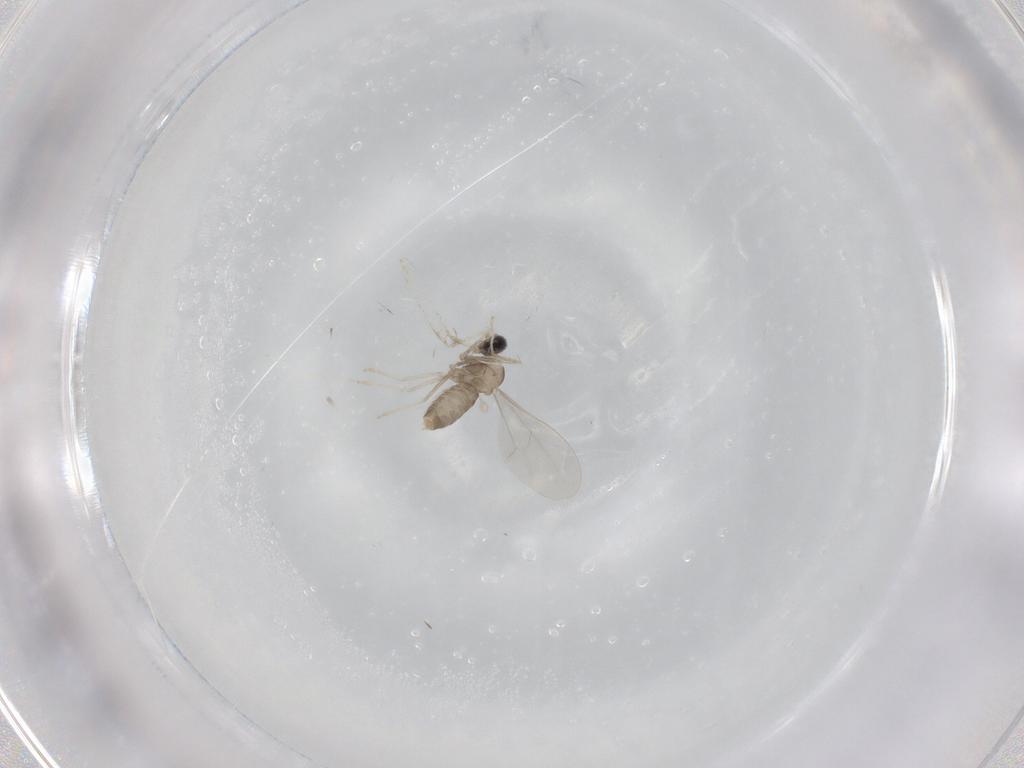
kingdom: Animalia
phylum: Arthropoda
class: Insecta
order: Diptera
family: Cecidomyiidae
